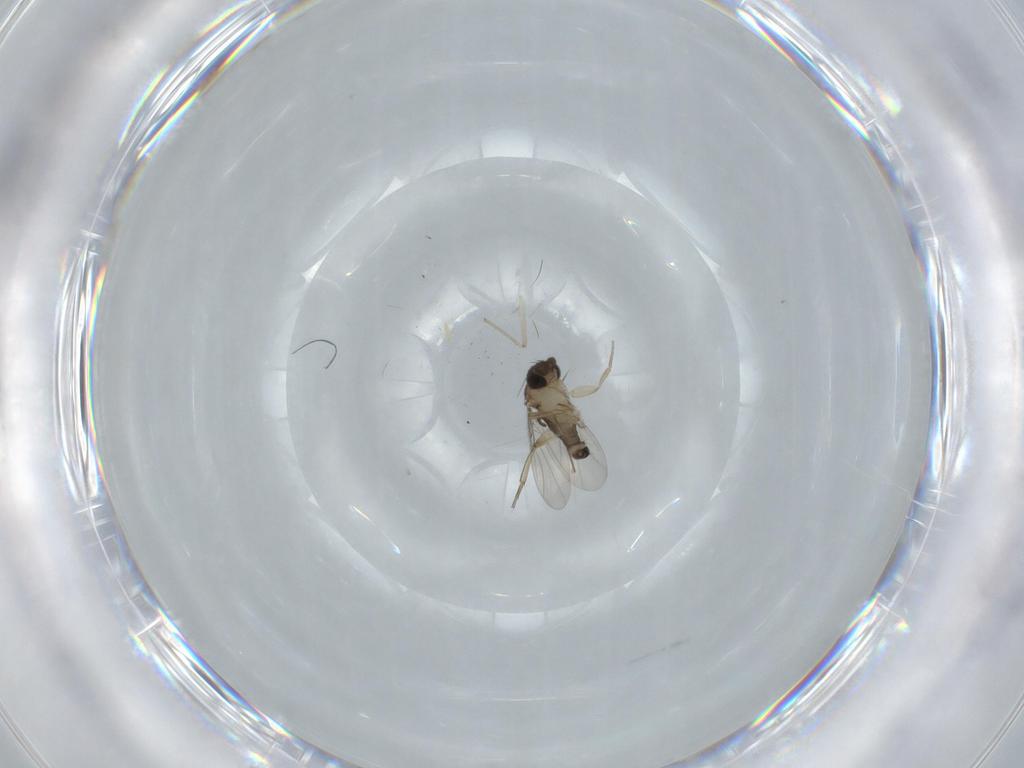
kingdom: Animalia
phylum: Arthropoda
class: Insecta
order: Diptera
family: Phoridae
